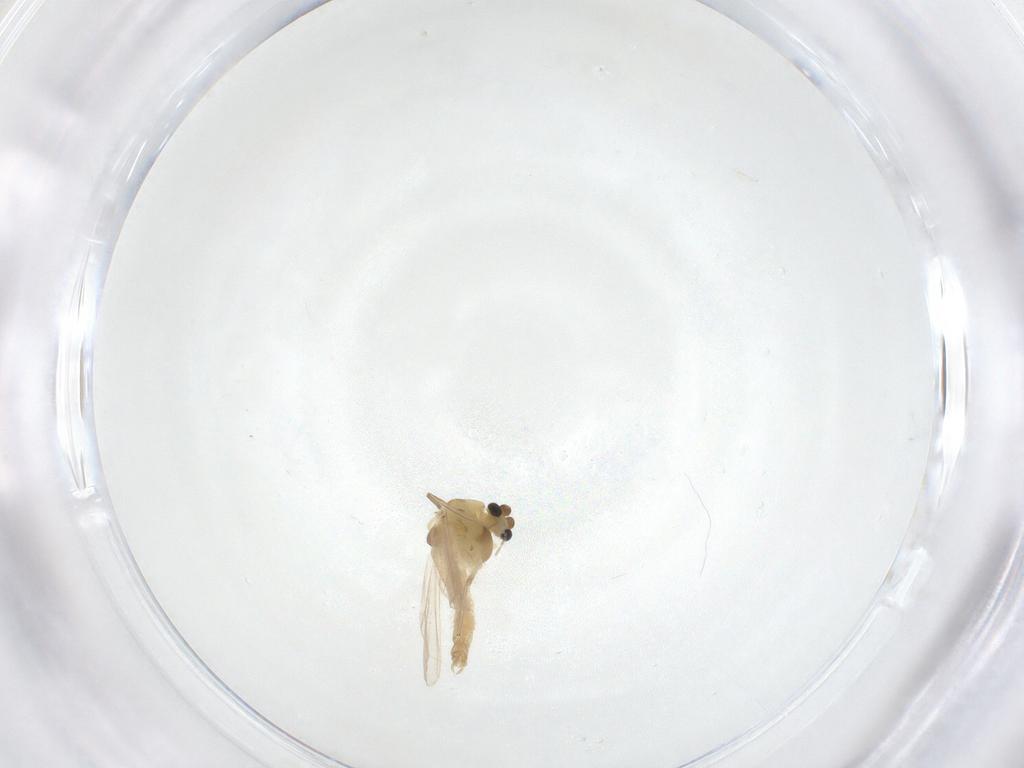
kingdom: Animalia
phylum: Arthropoda
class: Insecta
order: Diptera
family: Chironomidae
